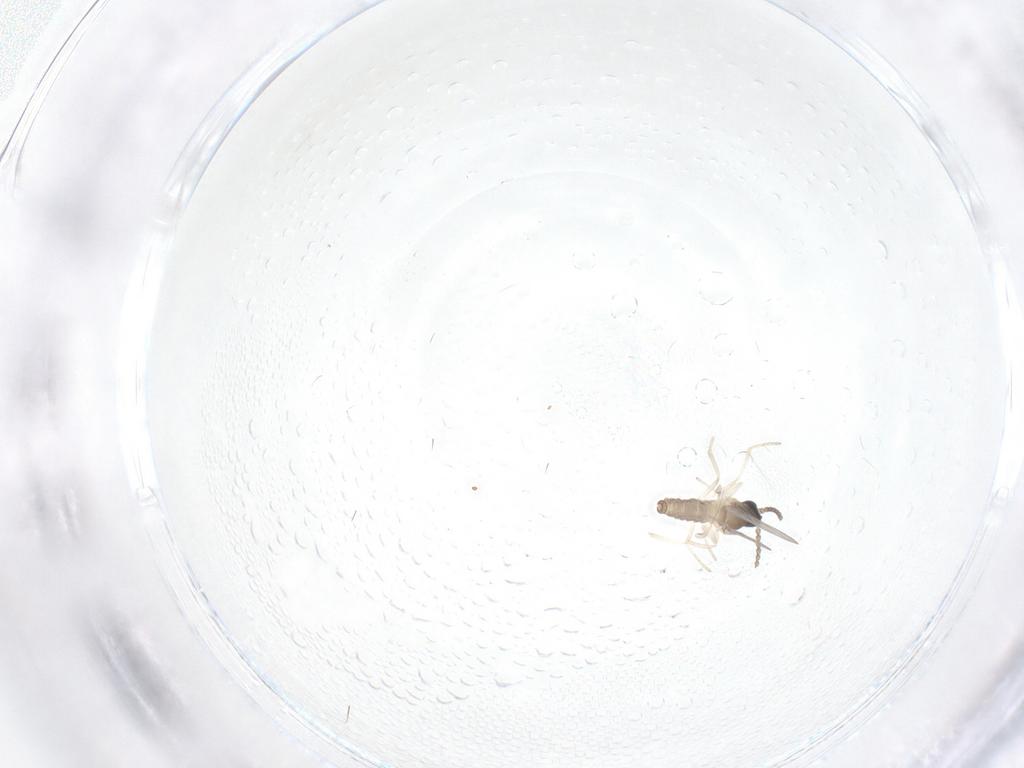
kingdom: Animalia
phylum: Arthropoda
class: Insecta
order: Diptera
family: Cecidomyiidae
